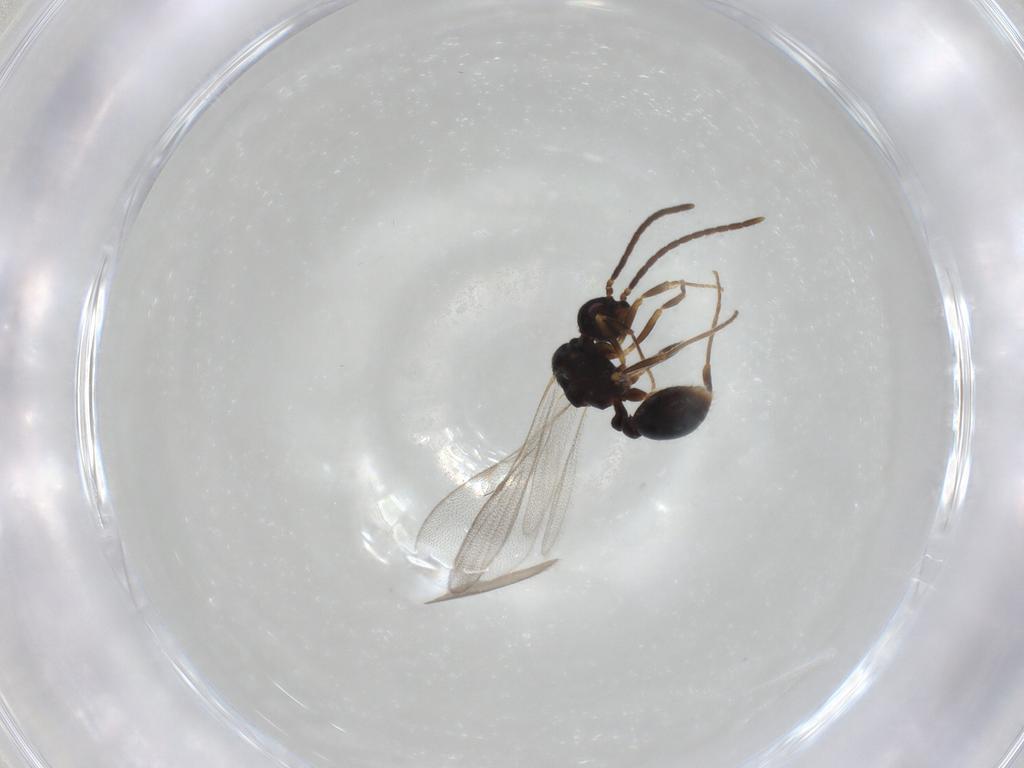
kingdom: Animalia
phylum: Arthropoda
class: Insecta
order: Hymenoptera
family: Formicidae
